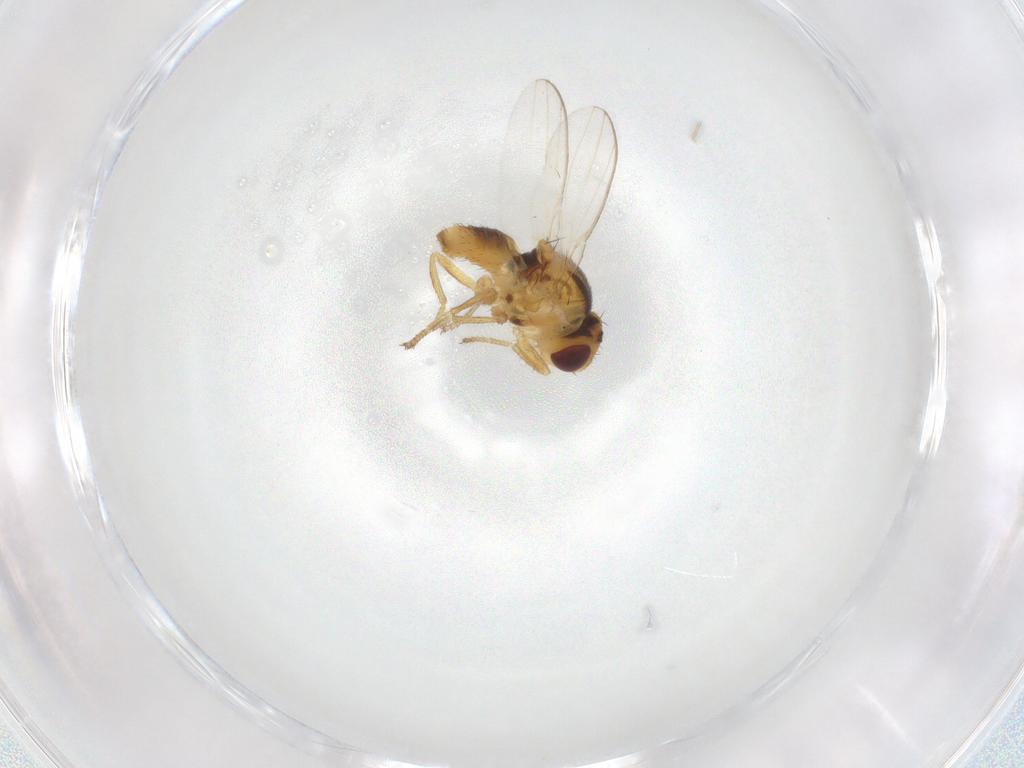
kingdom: Animalia
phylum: Arthropoda
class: Insecta
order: Diptera
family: Chloropidae
